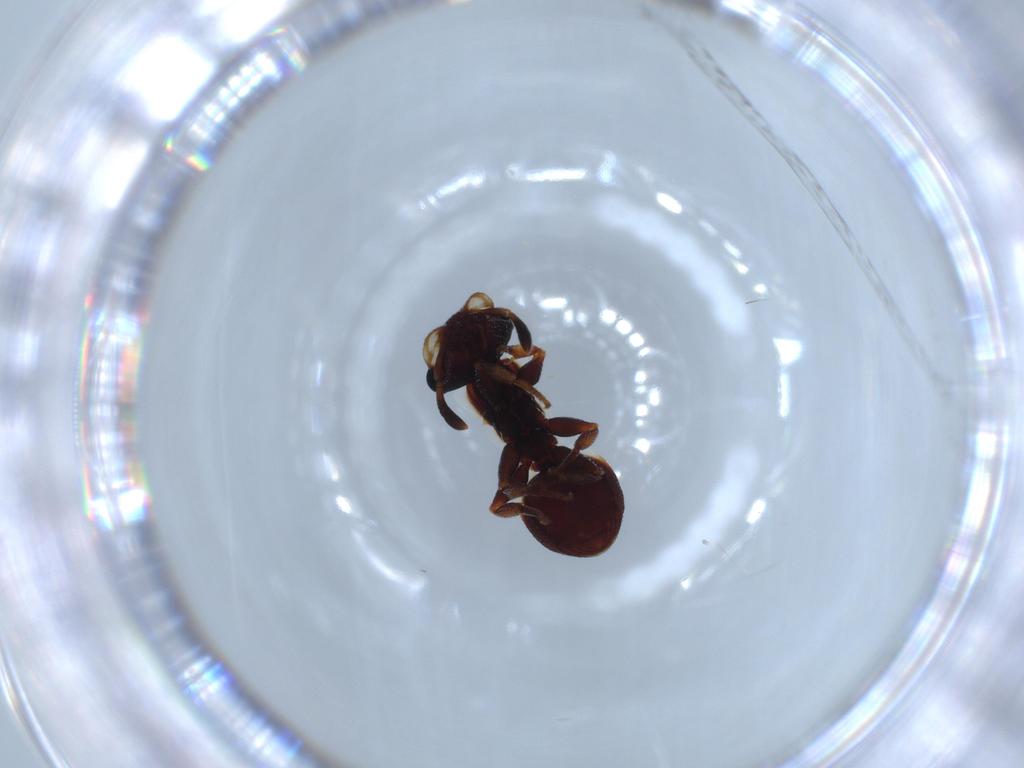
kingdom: Animalia
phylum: Arthropoda
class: Insecta
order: Hymenoptera
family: Formicidae
